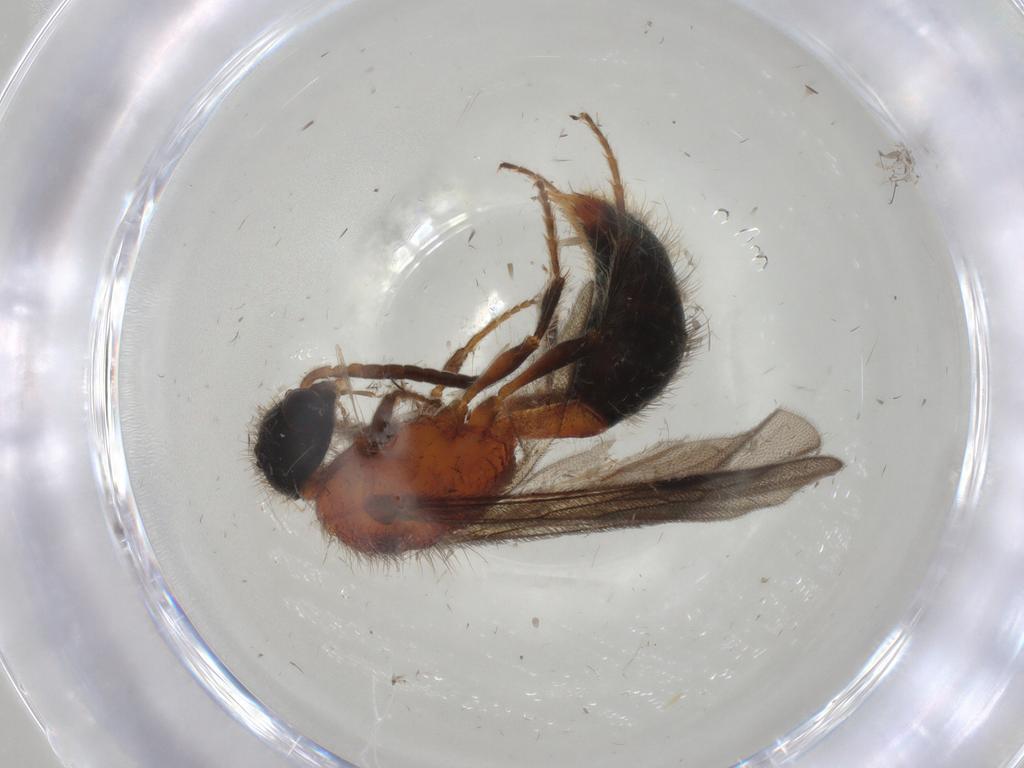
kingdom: Animalia
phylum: Arthropoda
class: Insecta
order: Hymenoptera
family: Mutillidae
